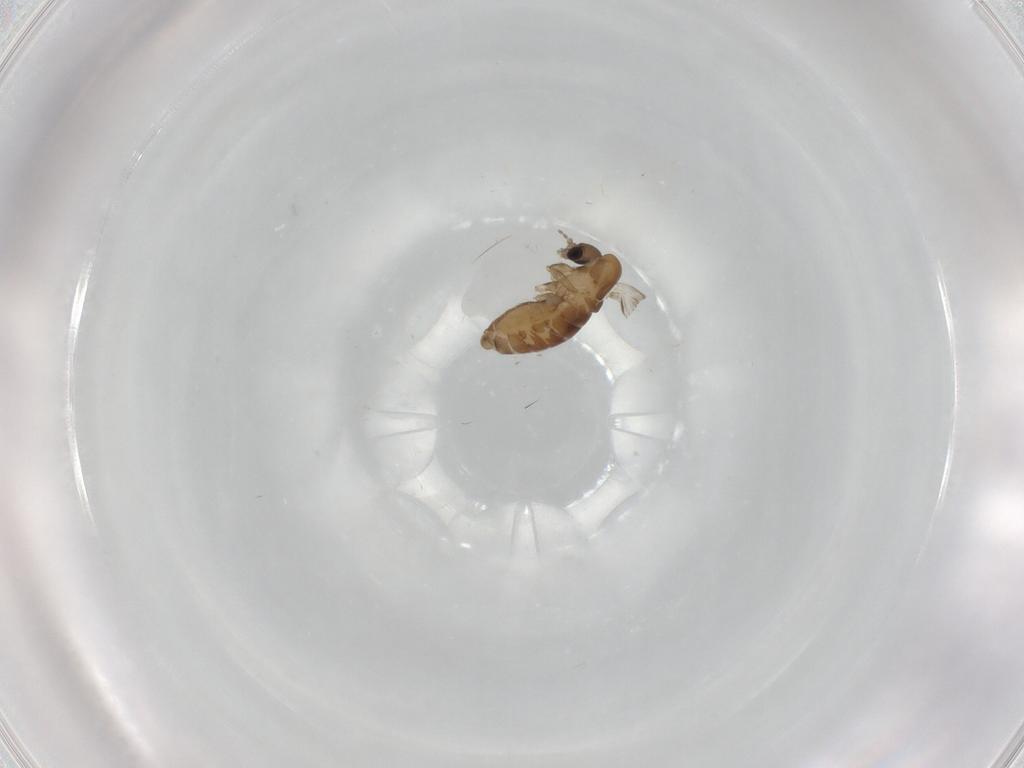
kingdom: Animalia
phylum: Arthropoda
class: Insecta
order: Diptera
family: Psychodidae
